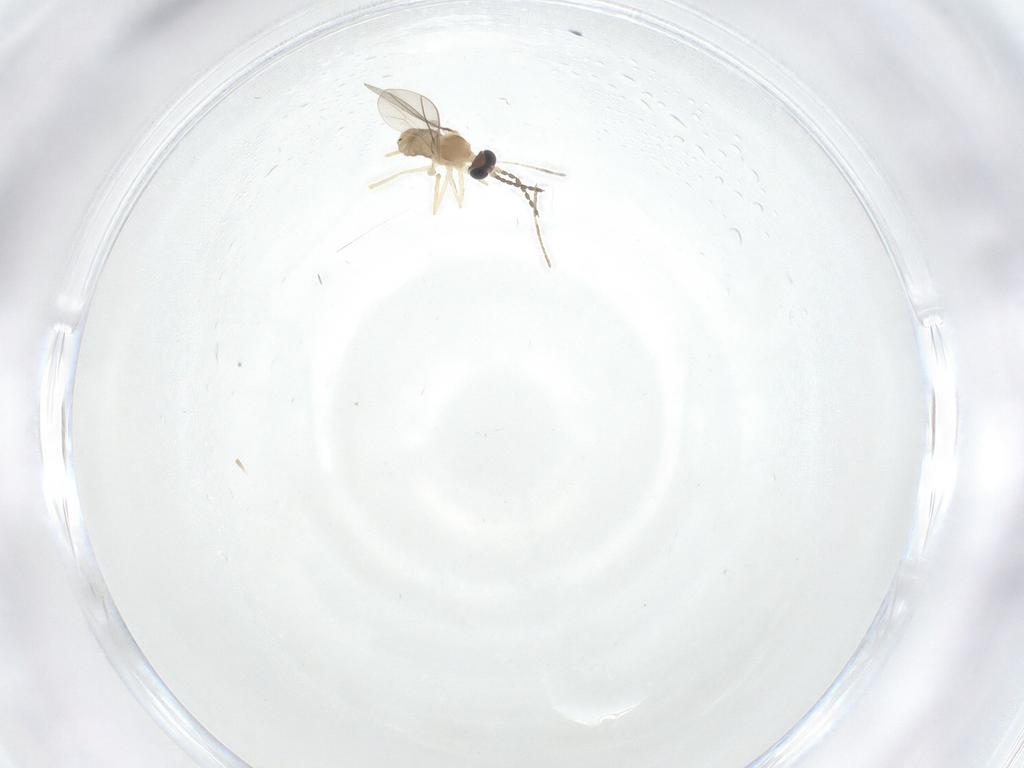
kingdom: Animalia
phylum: Arthropoda
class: Insecta
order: Diptera
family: Cecidomyiidae
